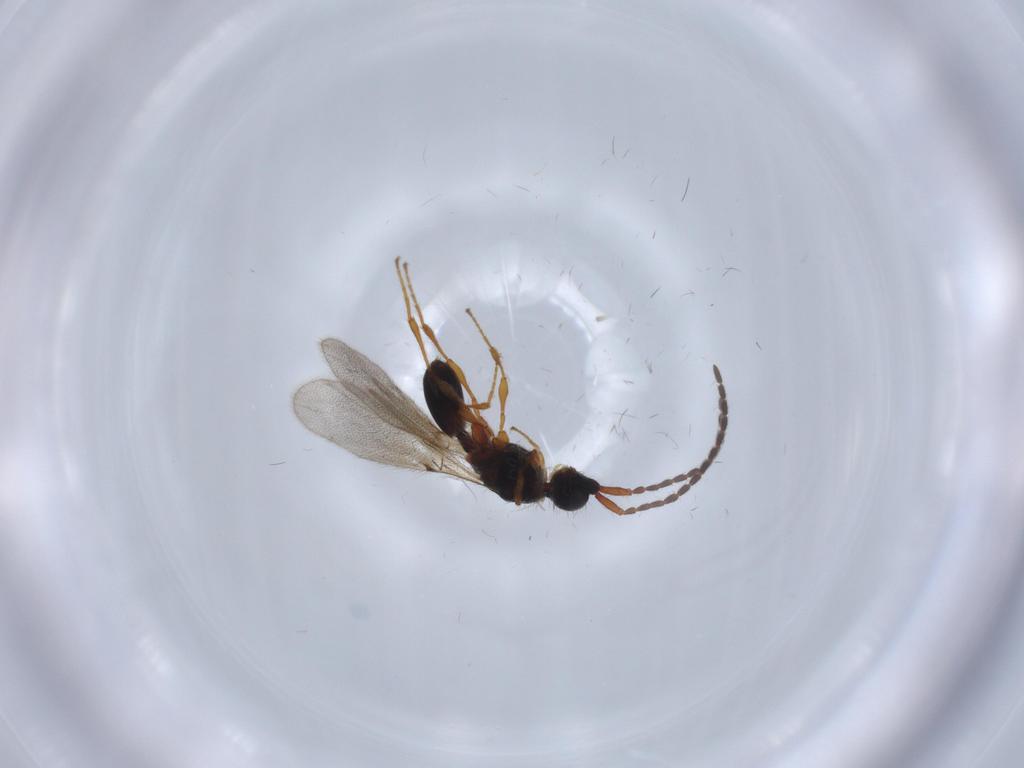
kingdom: Animalia
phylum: Arthropoda
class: Insecta
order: Hymenoptera
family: Diapriidae
